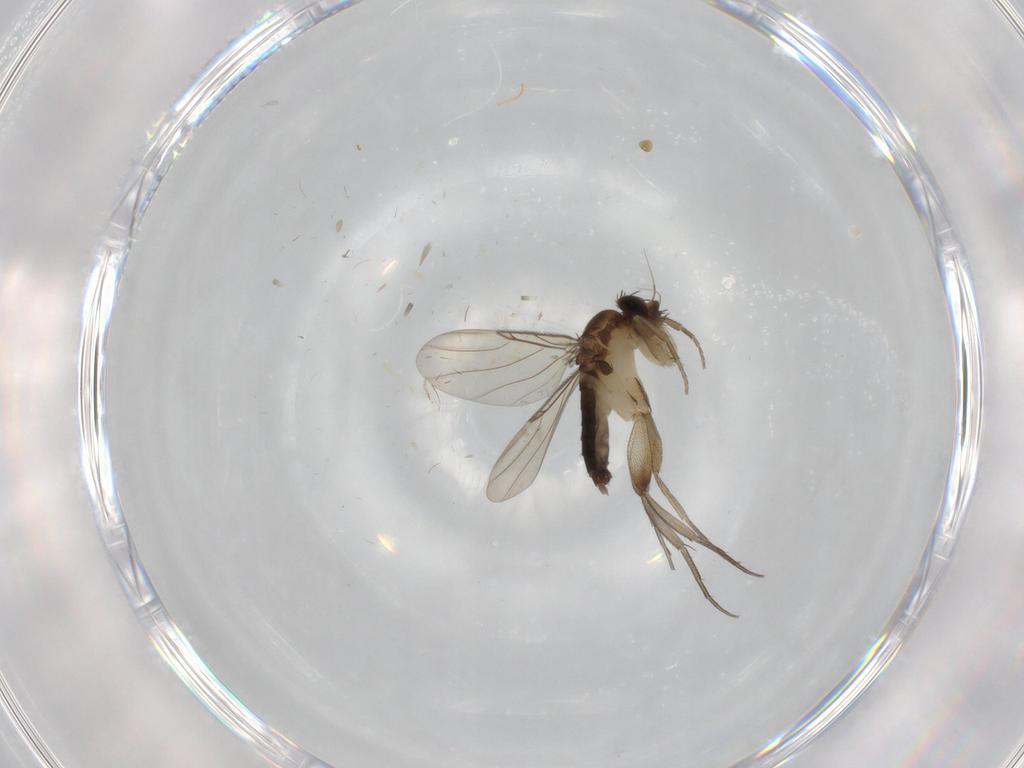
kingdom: Animalia
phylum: Arthropoda
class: Insecta
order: Diptera
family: Phoridae
